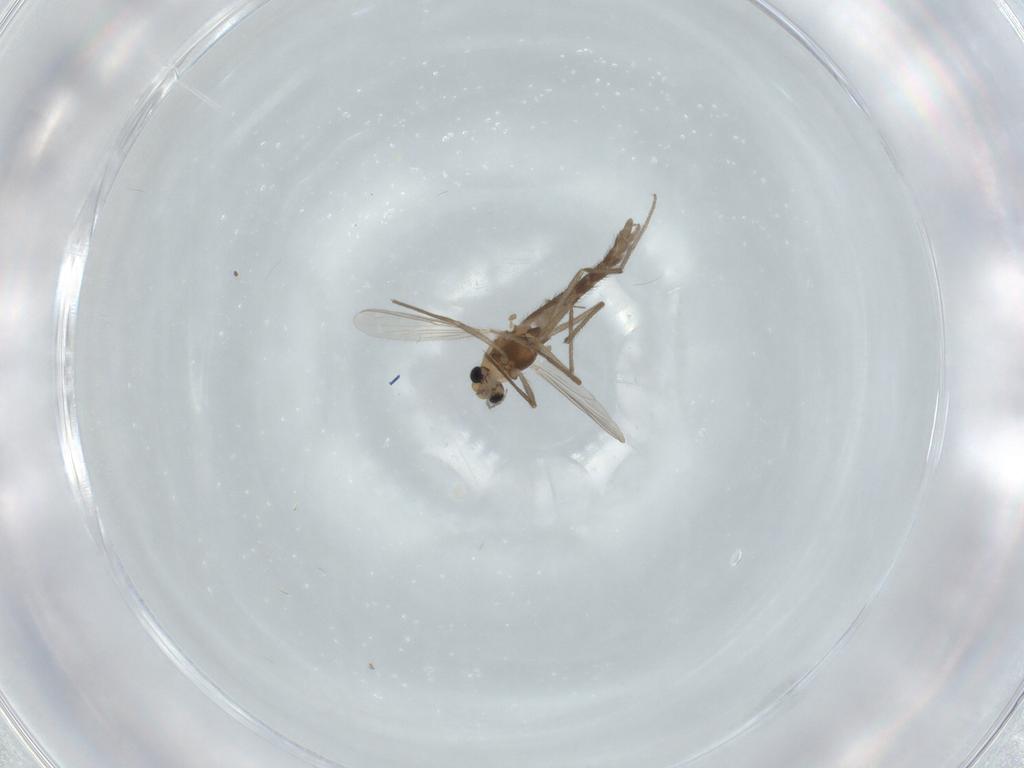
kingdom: Animalia
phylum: Arthropoda
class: Insecta
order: Diptera
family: Chironomidae
